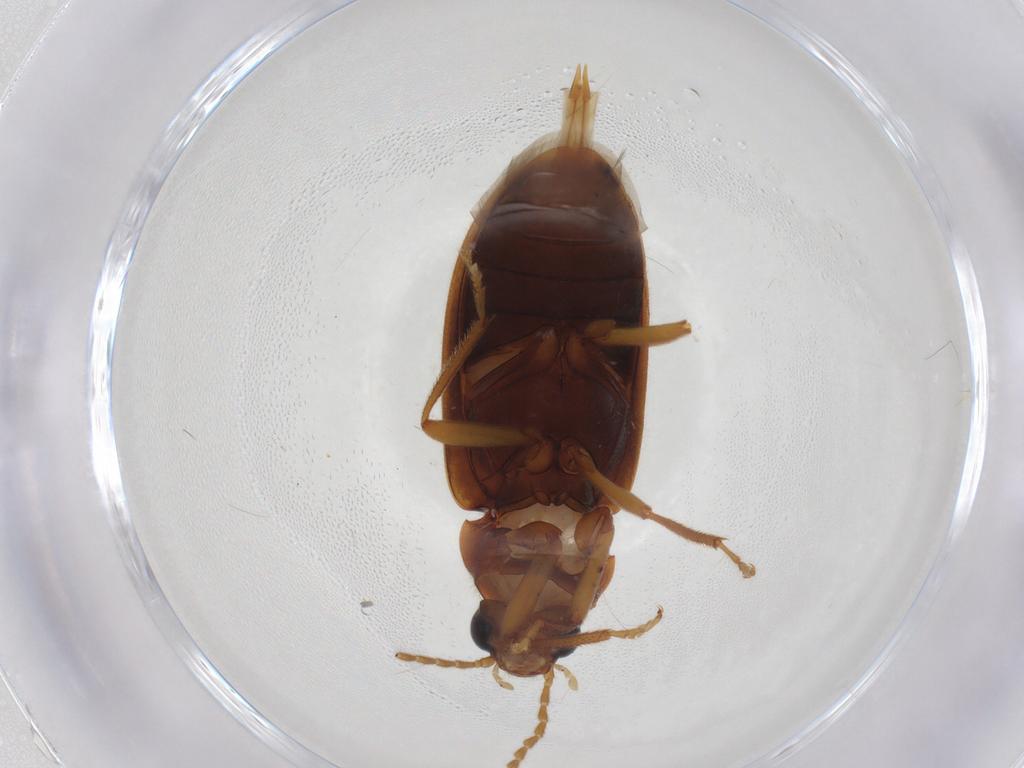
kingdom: Animalia
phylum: Arthropoda
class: Insecta
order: Coleoptera
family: Ptilodactylidae
